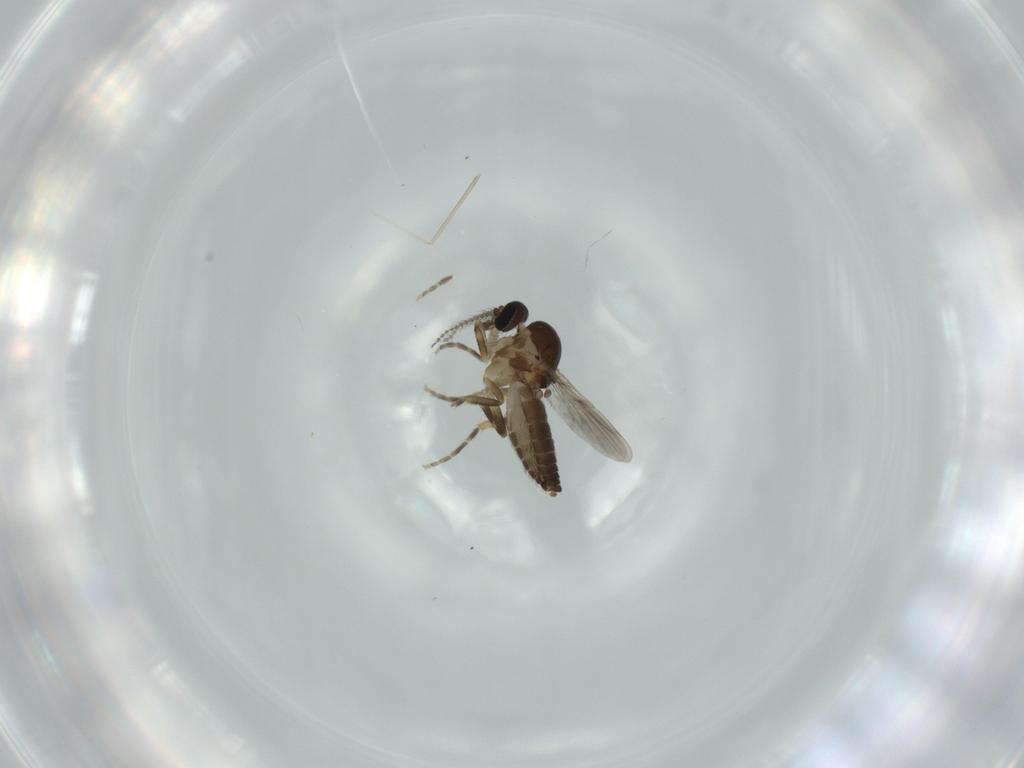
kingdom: Animalia
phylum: Arthropoda
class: Insecta
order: Diptera
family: Ceratopogonidae
